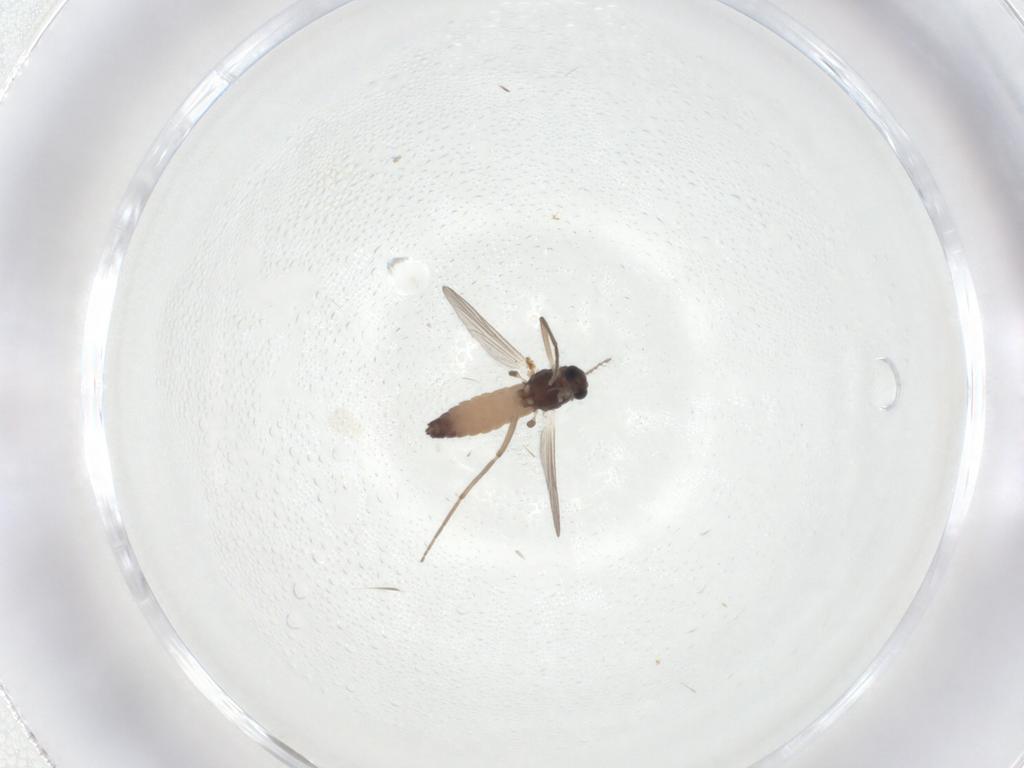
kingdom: Animalia
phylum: Arthropoda
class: Insecta
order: Diptera
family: Chironomidae
